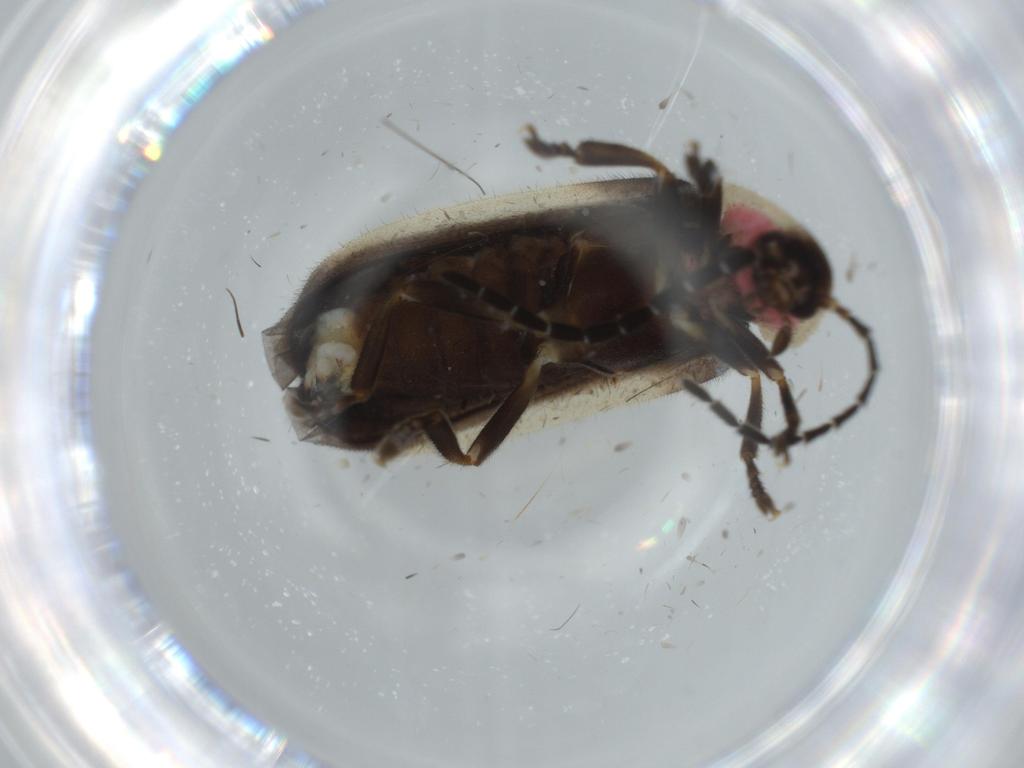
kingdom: Animalia
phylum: Arthropoda
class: Insecta
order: Coleoptera
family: Lampyridae
